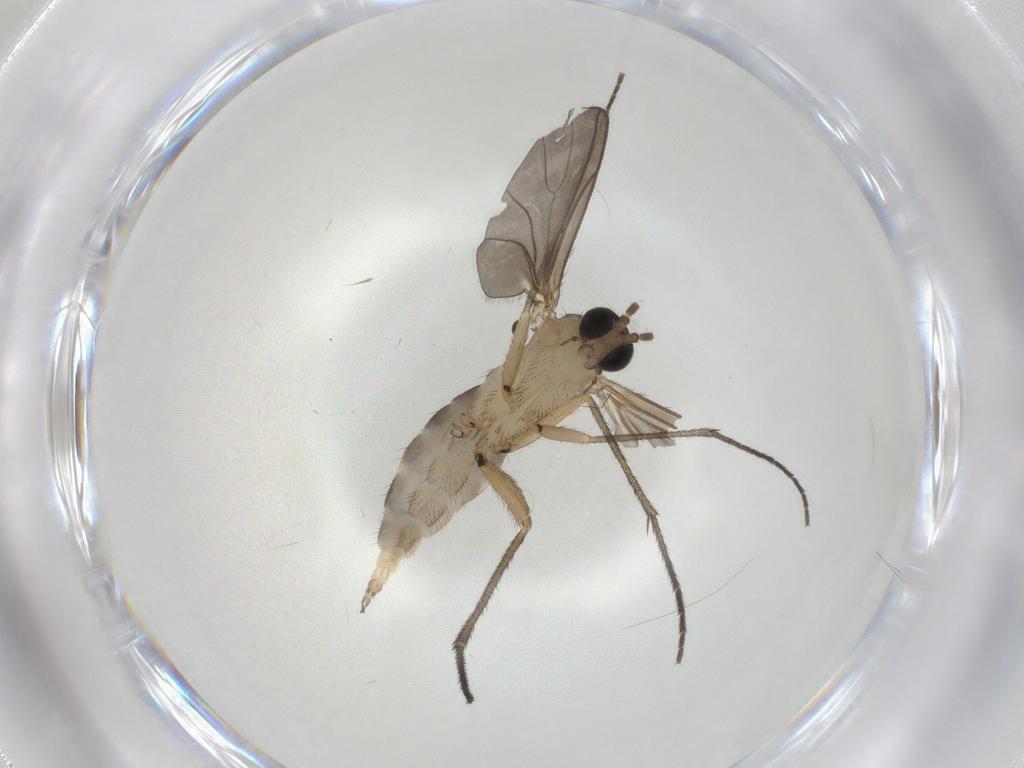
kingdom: Animalia
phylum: Arthropoda
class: Insecta
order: Diptera
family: Sciaridae
